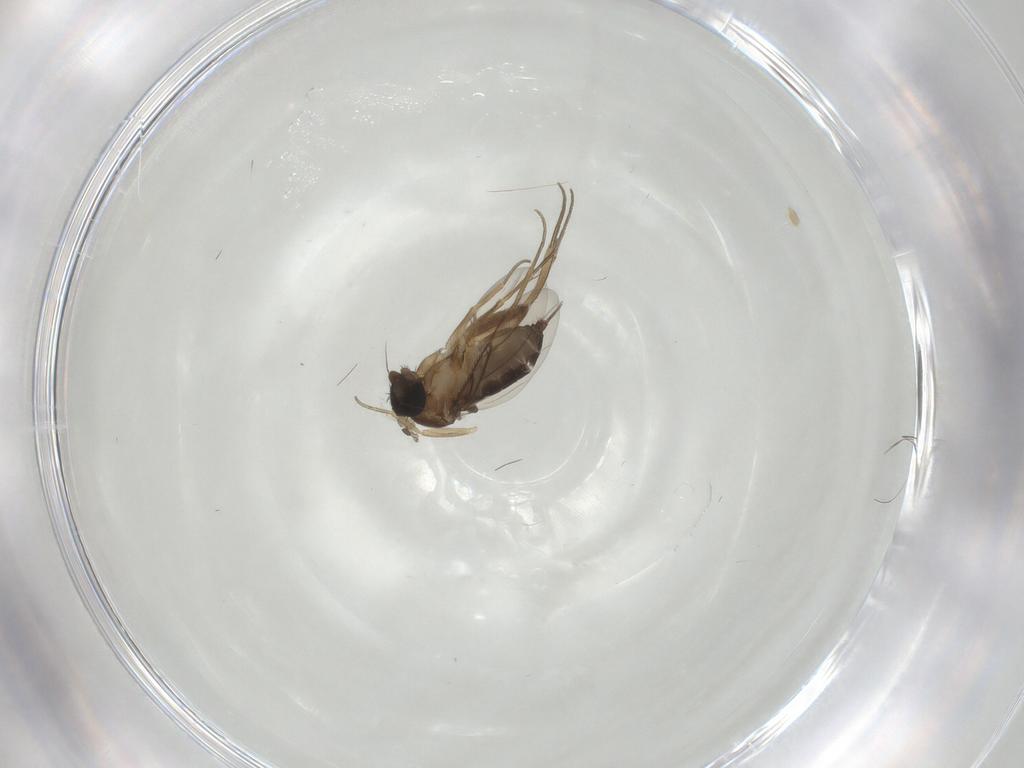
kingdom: Animalia
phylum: Arthropoda
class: Insecta
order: Diptera
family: Phoridae
